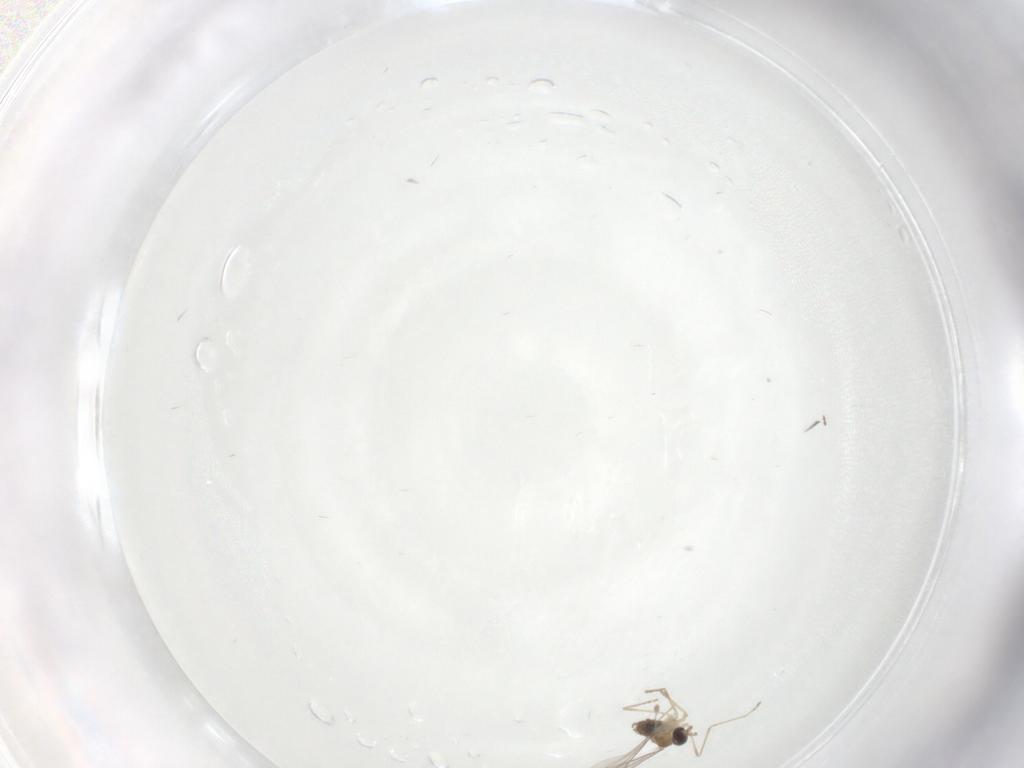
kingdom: Animalia
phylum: Arthropoda
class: Insecta
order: Diptera
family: Cecidomyiidae
